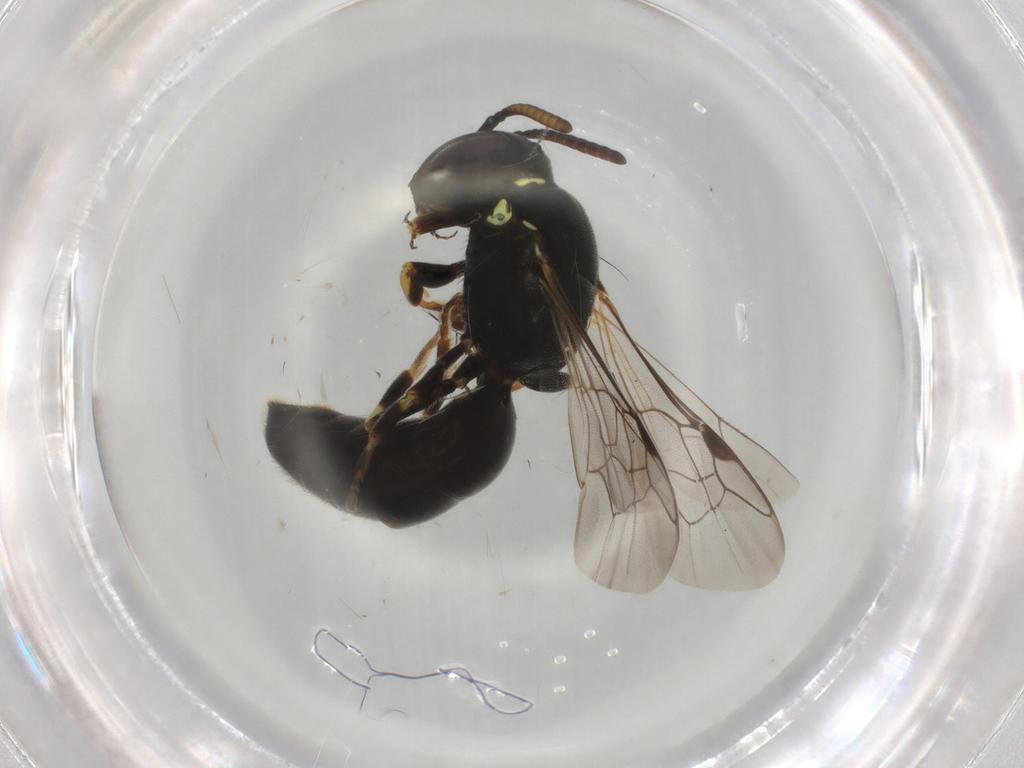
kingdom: Animalia
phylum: Arthropoda
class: Insecta
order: Hymenoptera
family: Colletidae
